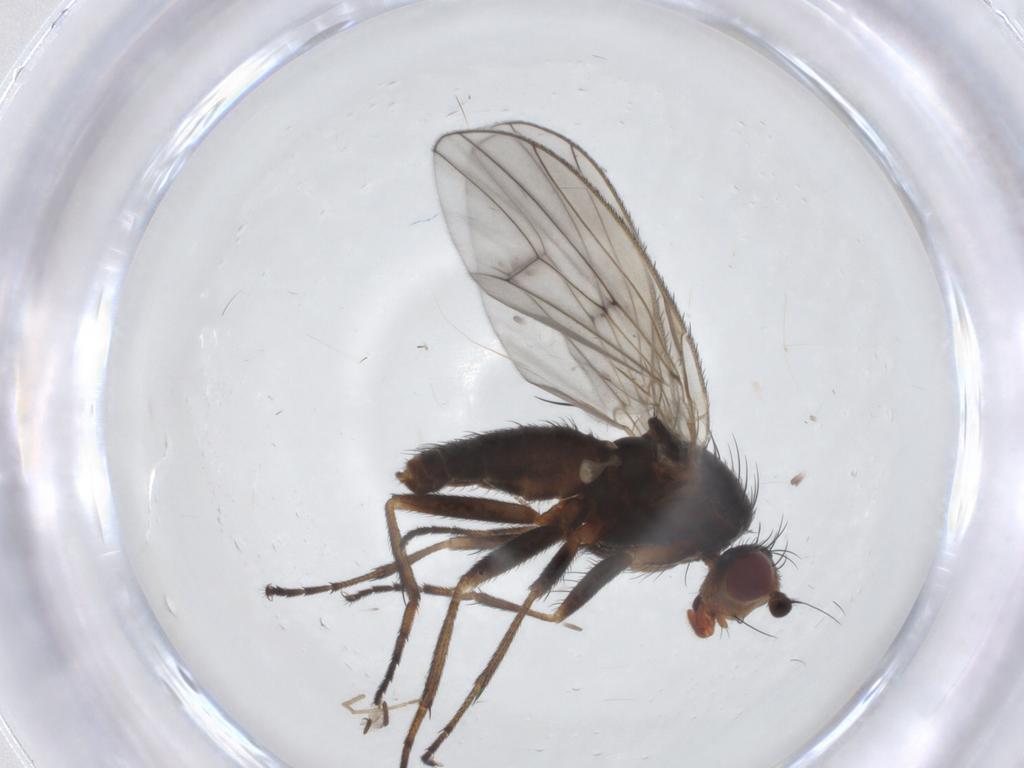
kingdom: Animalia
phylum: Arthropoda
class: Insecta
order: Diptera
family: Heleomyzidae
